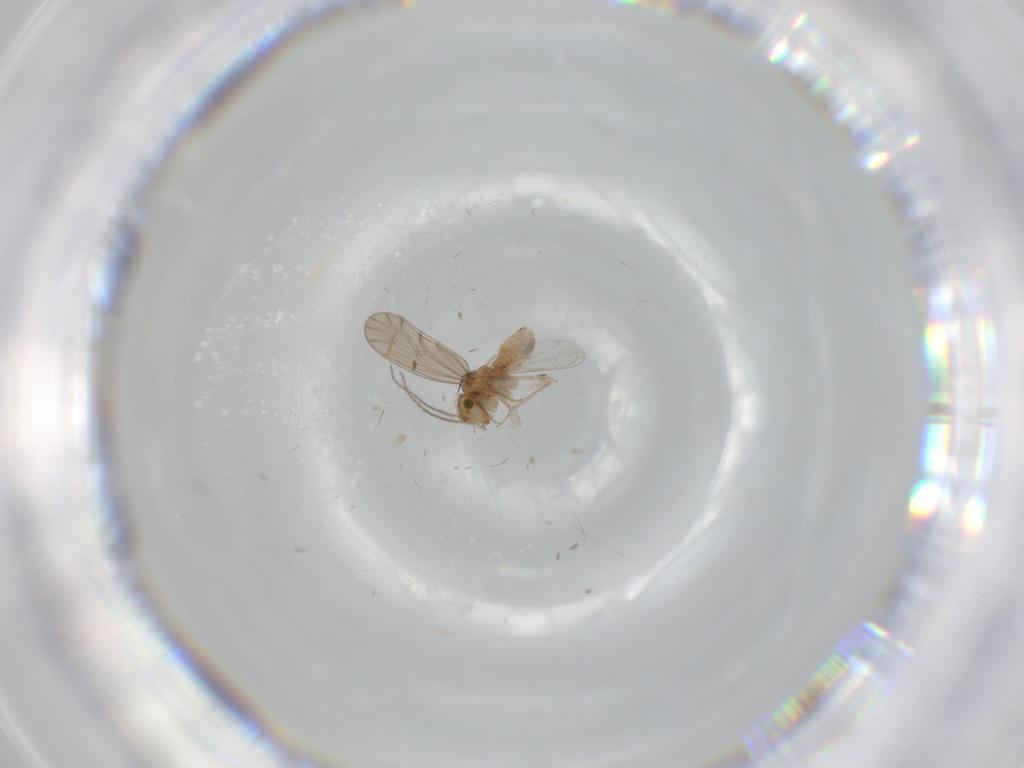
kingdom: Animalia
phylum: Arthropoda
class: Insecta
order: Psocodea
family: Ectopsocidae
